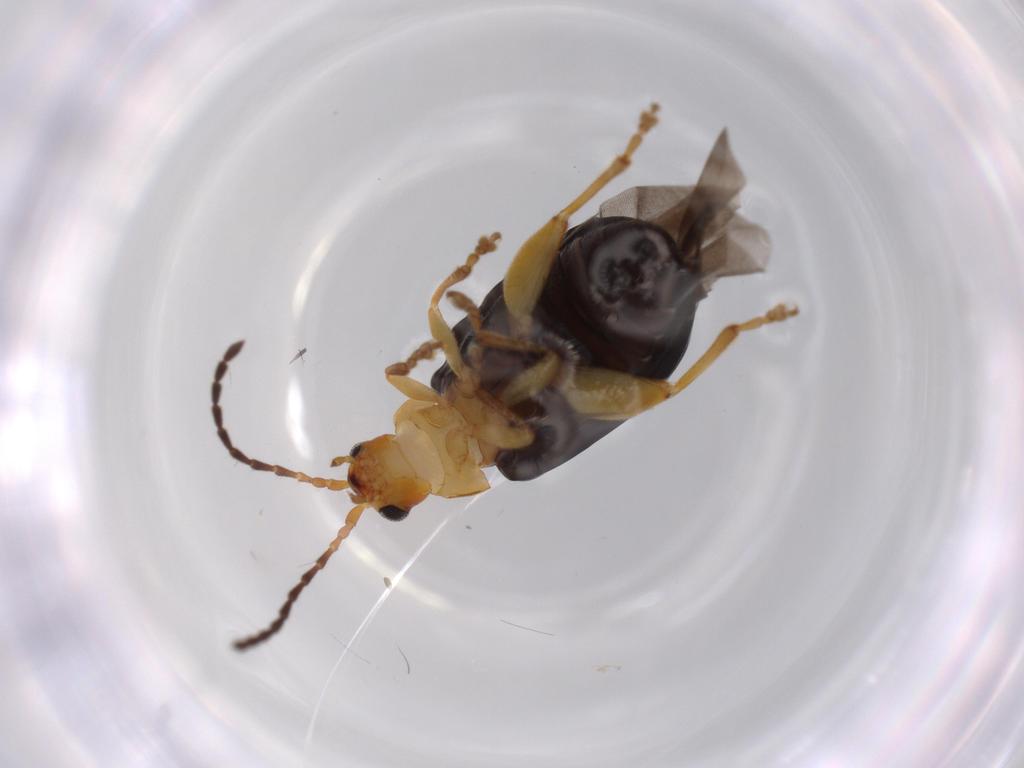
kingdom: Animalia
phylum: Arthropoda
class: Insecta
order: Coleoptera
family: Chrysomelidae
